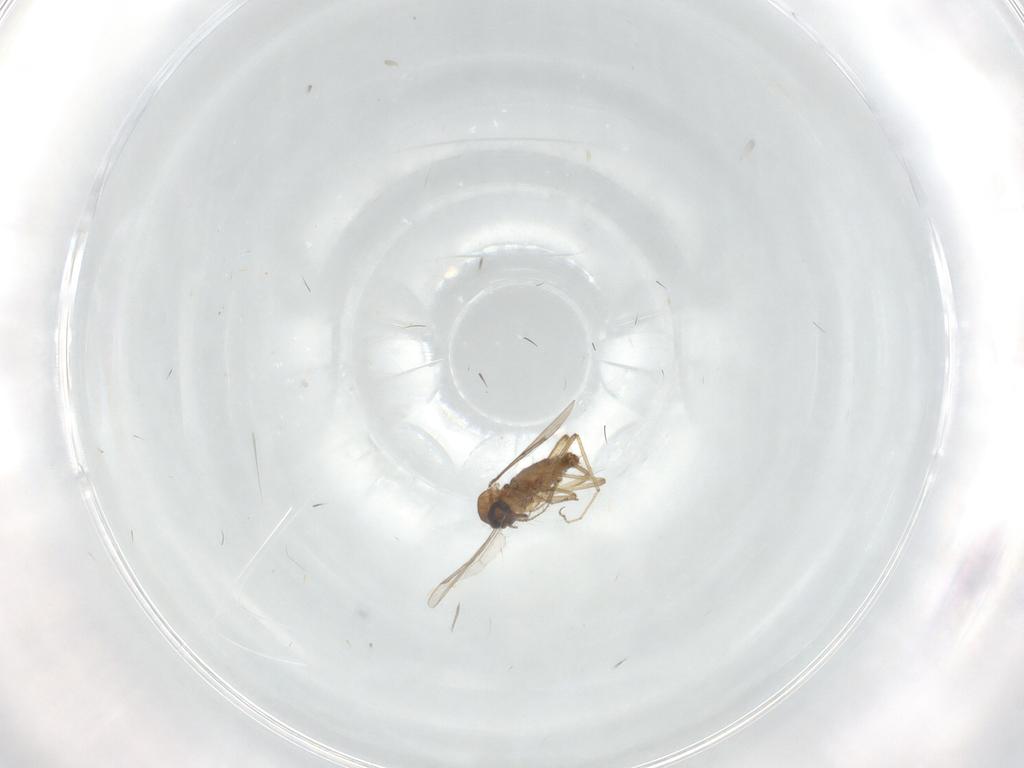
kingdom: Animalia
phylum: Arthropoda
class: Insecta
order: Diptera
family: Ceratopogonidae
